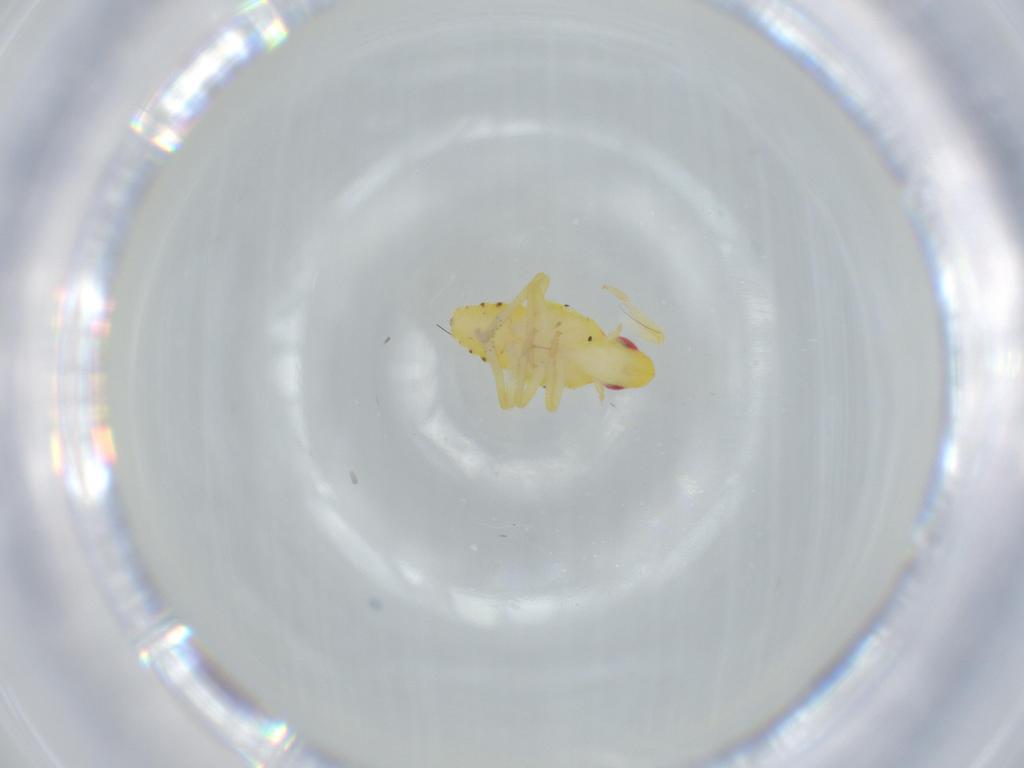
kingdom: Animalia
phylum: Arthropoda
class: Insecta
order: Hemiptera
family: Tropiduchidae
